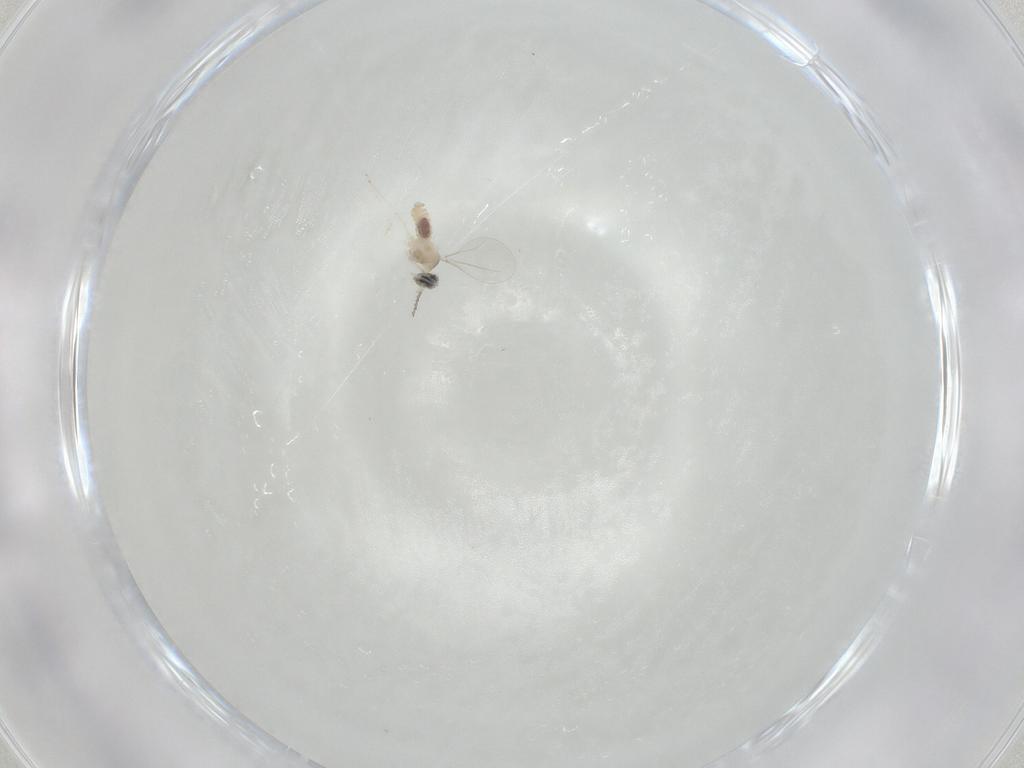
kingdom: Animalia
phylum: Arthropoda
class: Insecta
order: Diptera
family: Cecidomyiidae
